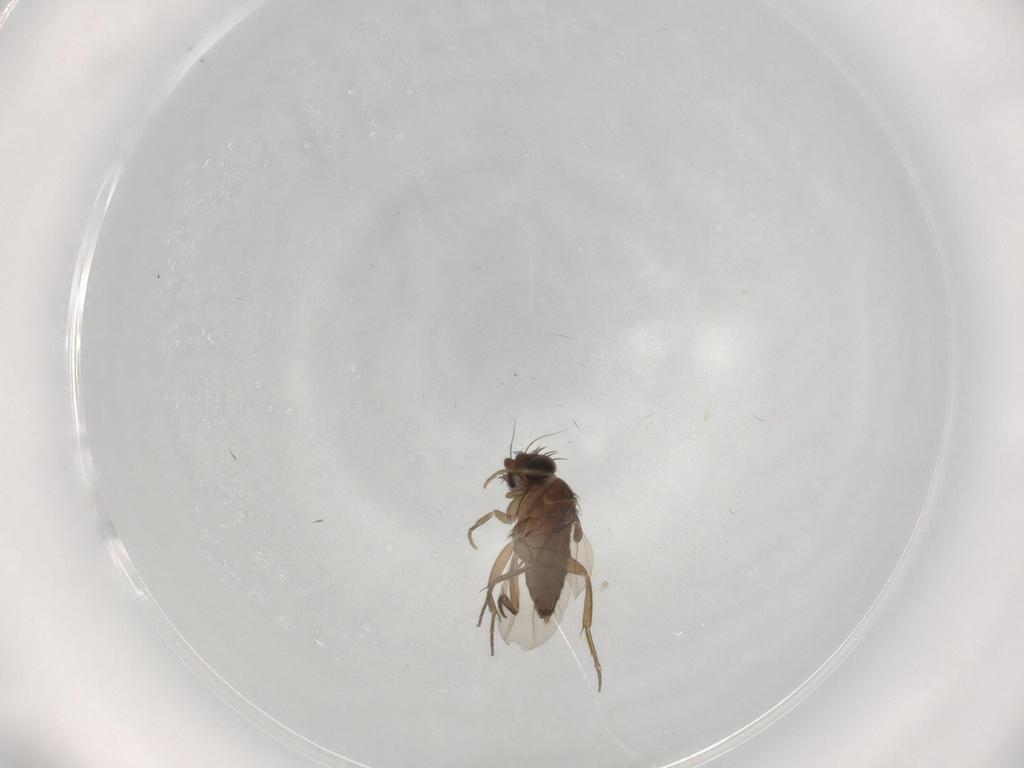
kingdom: Animalia
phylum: Arthropoda
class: Insecta
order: Diptera
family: Phoridae
